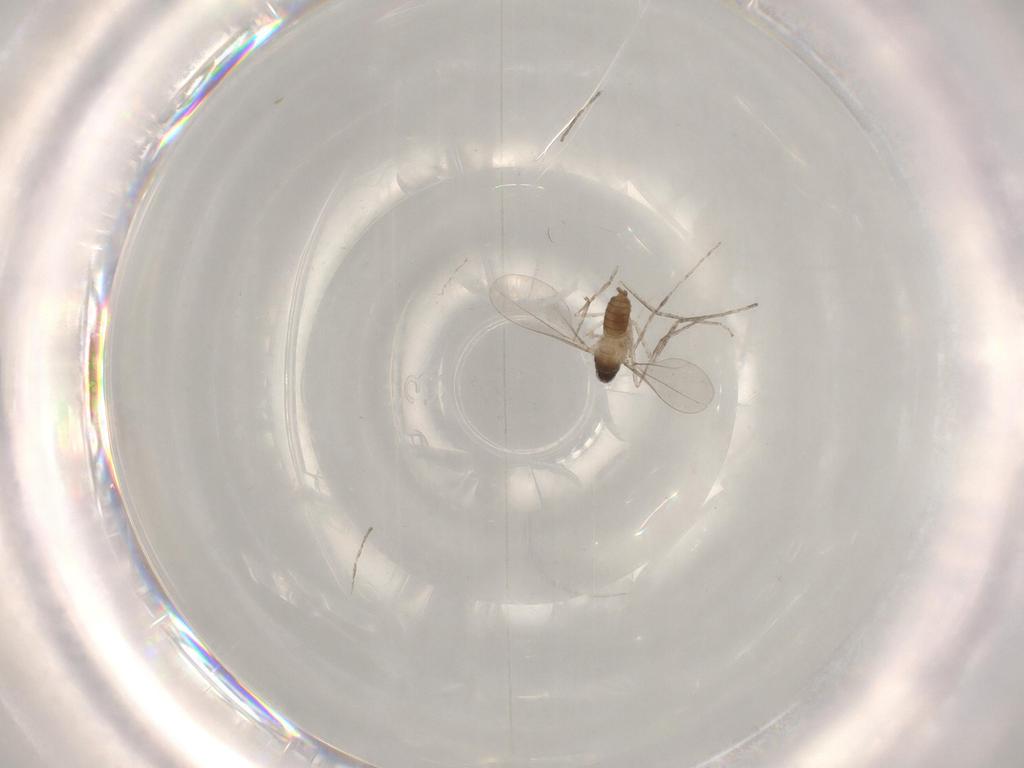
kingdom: Animalia
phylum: Arthropoda
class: Insecta
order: Diptera
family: Cecidomyiidae
